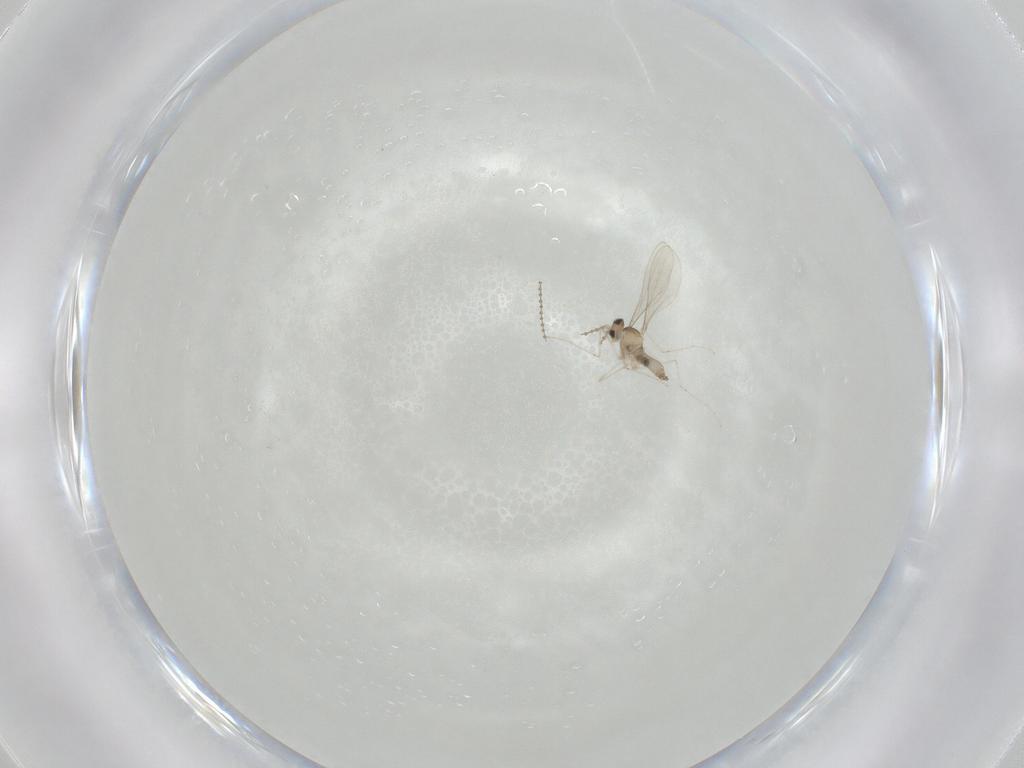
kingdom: Animalia
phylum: Arthropoda
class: Insecta
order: Diptera
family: Cecidomyiidae
